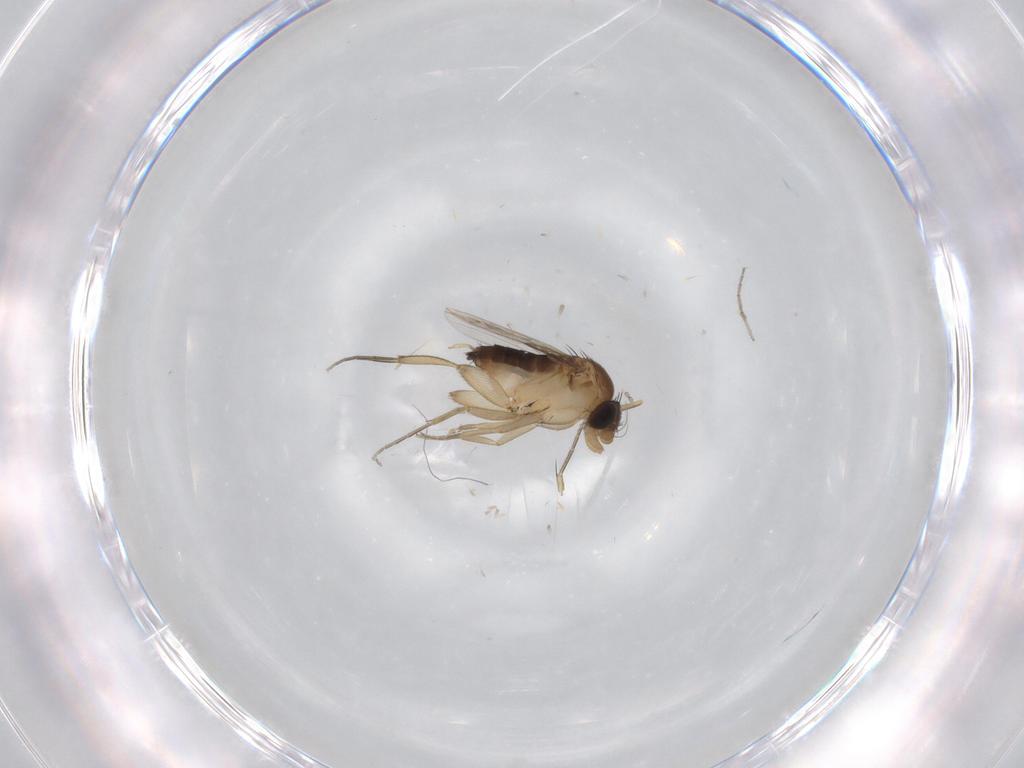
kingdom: Animalia
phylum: Arthropoda
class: Insecta
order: Diptera
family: Phoridae
